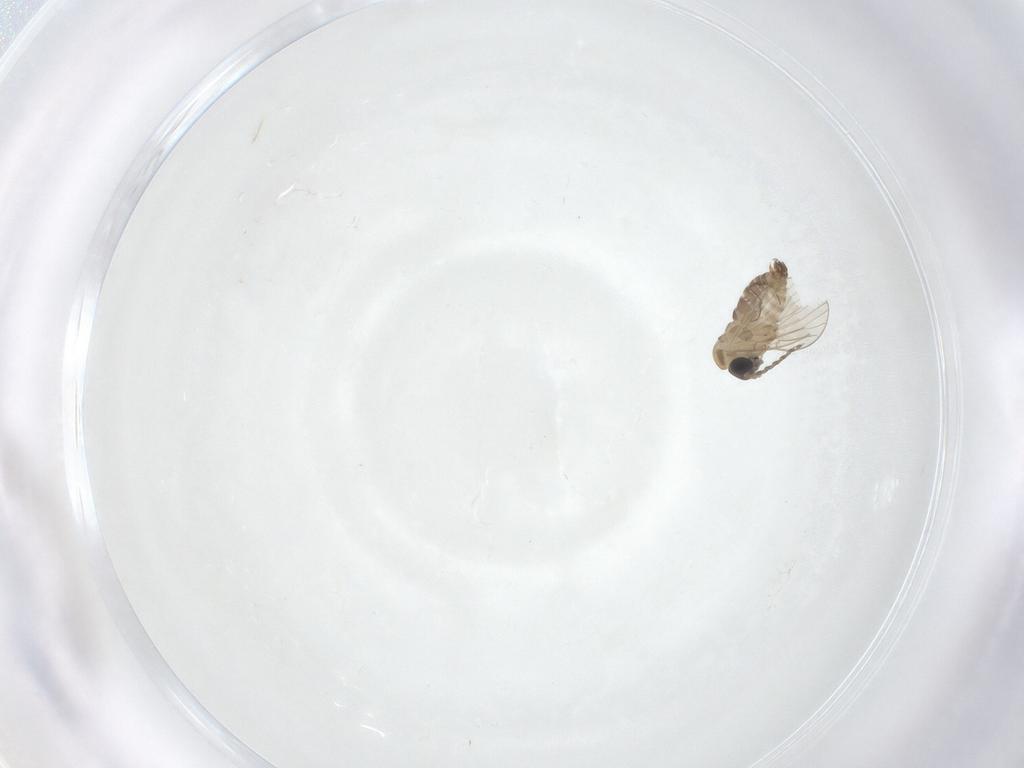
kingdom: Animalia
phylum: Arthropoda
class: Insecta
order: Diptera
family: Psychodidae
